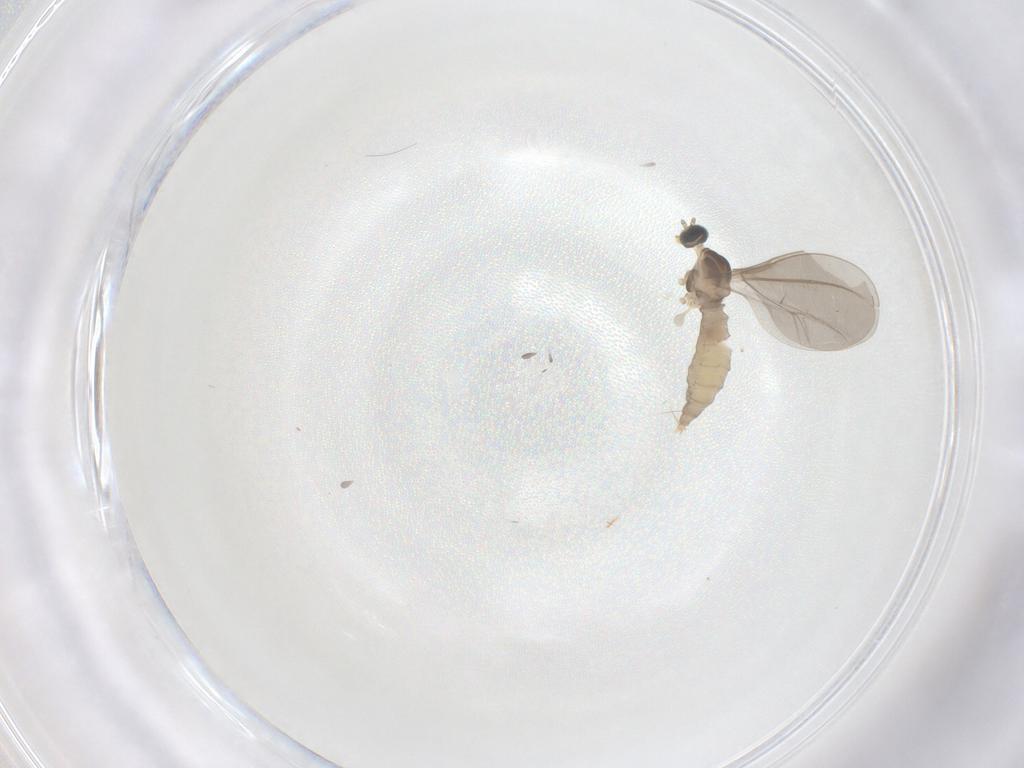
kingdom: Animalia
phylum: Arthropoda
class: Insecta
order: Diptera
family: Cecidomyiidae
